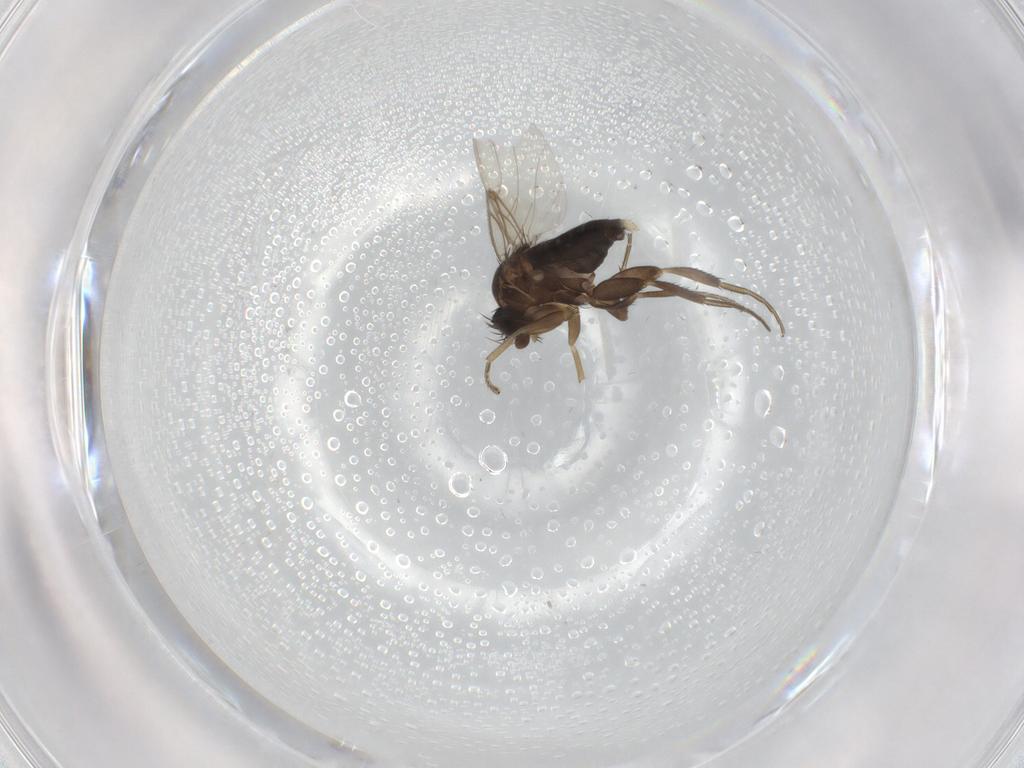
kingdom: Animalia
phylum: Arthropoda
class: Insecta
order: Diptera
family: Phoridae
